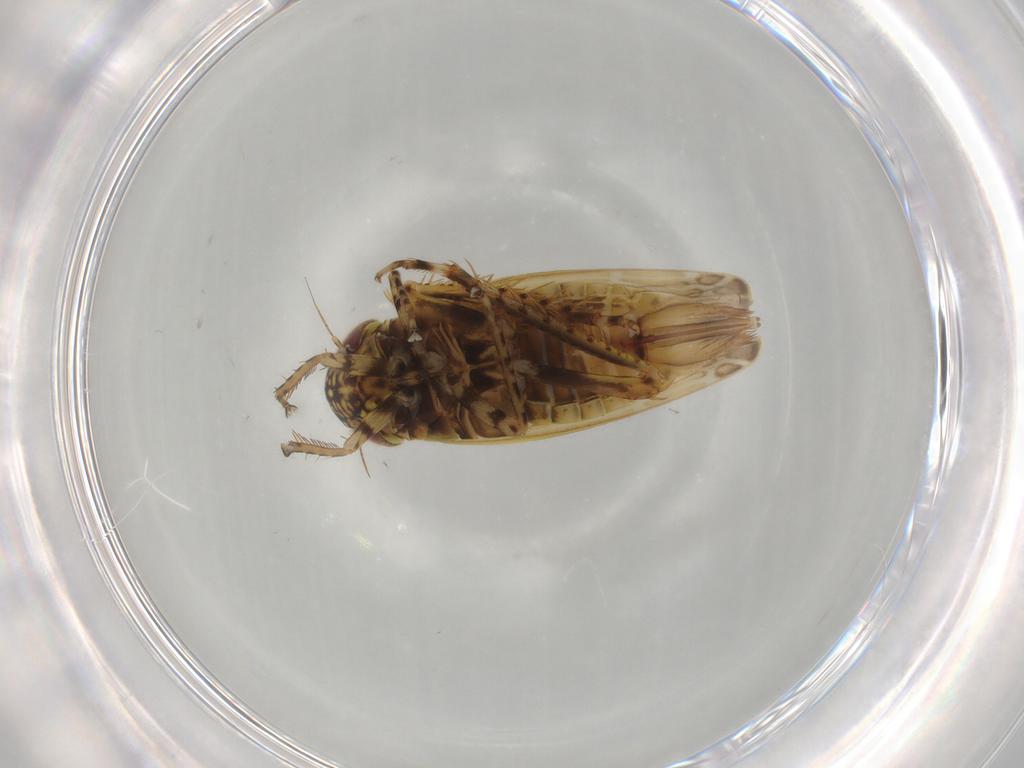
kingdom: Animalia
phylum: Arthropoda
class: Insecta
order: Hemiptera
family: Cicadellidae
